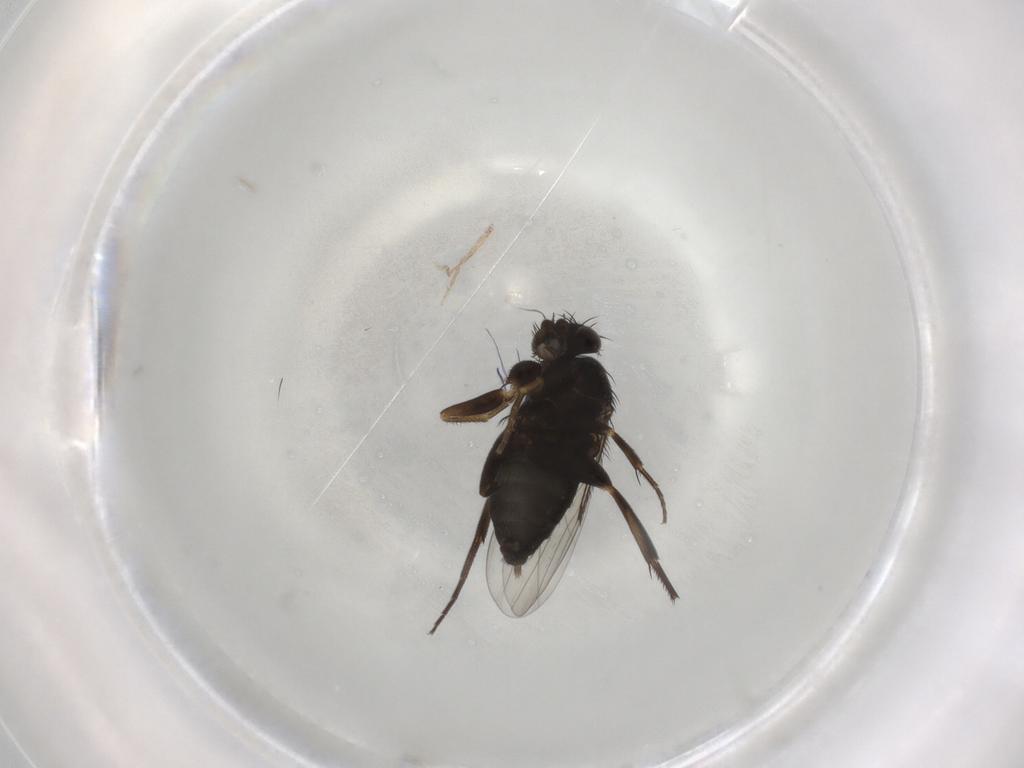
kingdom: Animalia
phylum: Arthropoda
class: Insecta
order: Diptera
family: Phoridae
